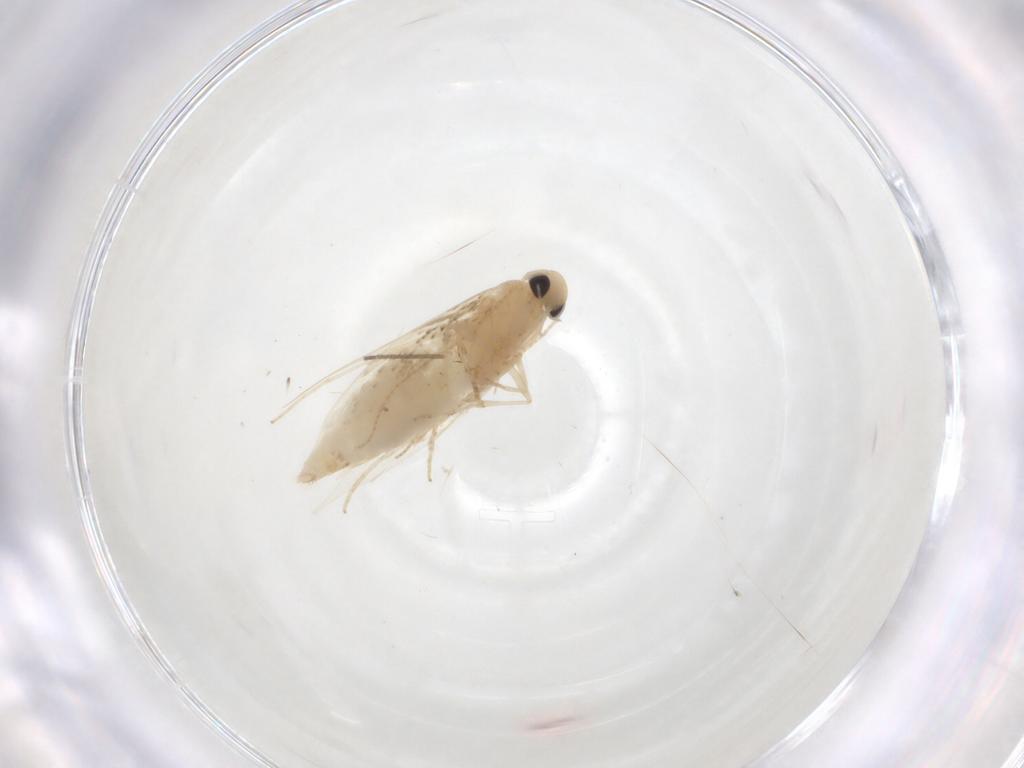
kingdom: Animalia
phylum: Arthropoda
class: Insecta
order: Lepidoptera
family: Gracillariidae
